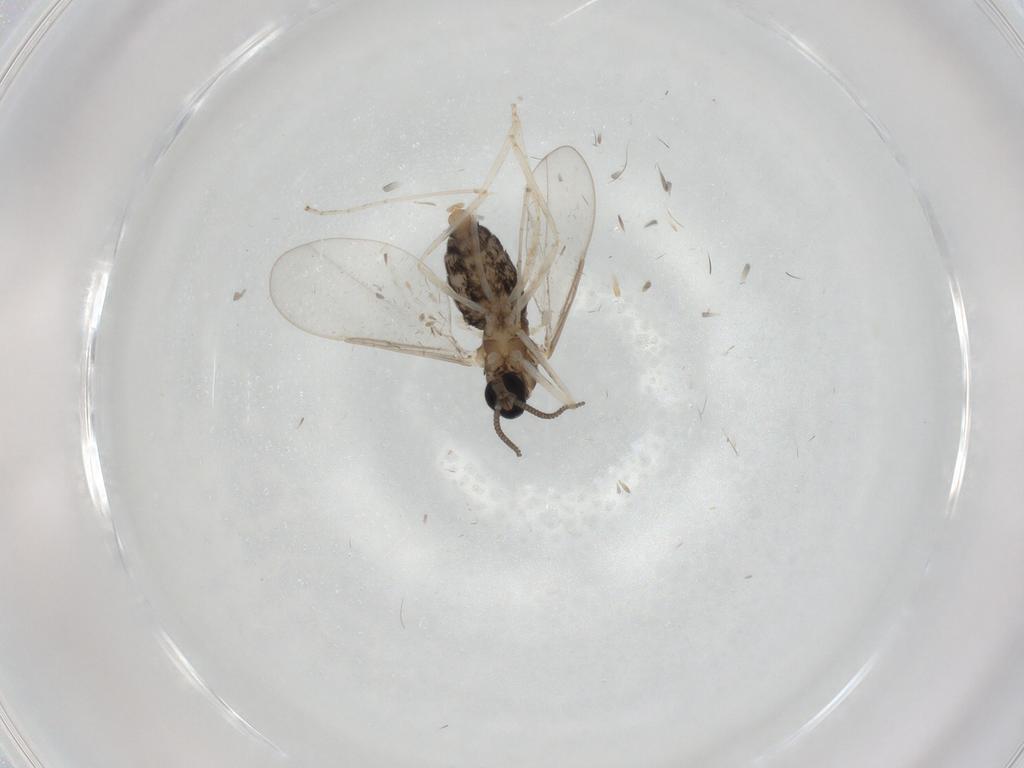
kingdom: Animalia
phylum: Arthropoda
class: Insecta
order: Diptera
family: Cecidomyiidae
